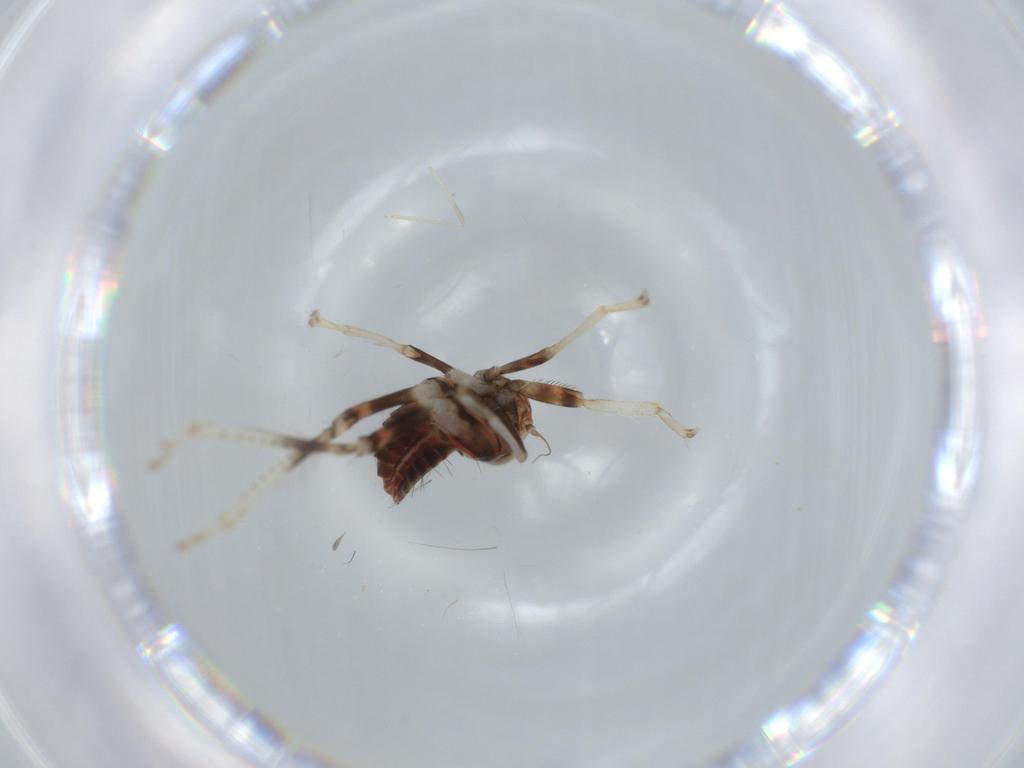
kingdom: Animalia
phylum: Arthropoda
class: Insecta
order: Hemiptera
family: Cicadellidae
